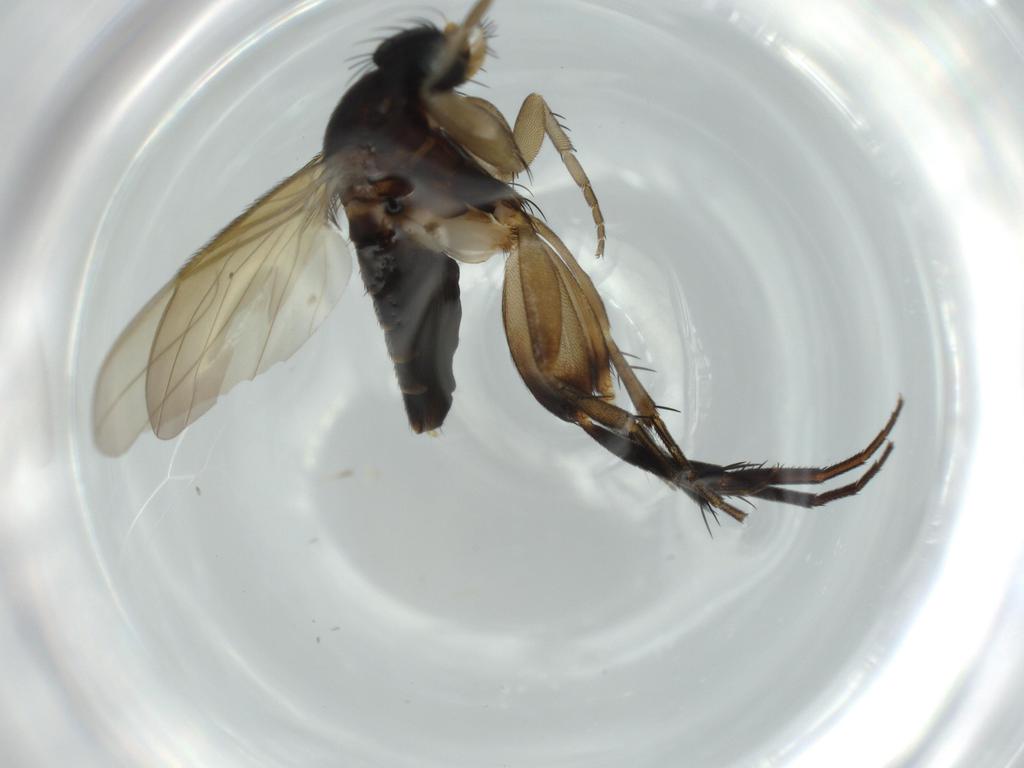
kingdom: Animalia
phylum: Arthropoda
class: Insecta
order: Diptera
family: Phoridae
